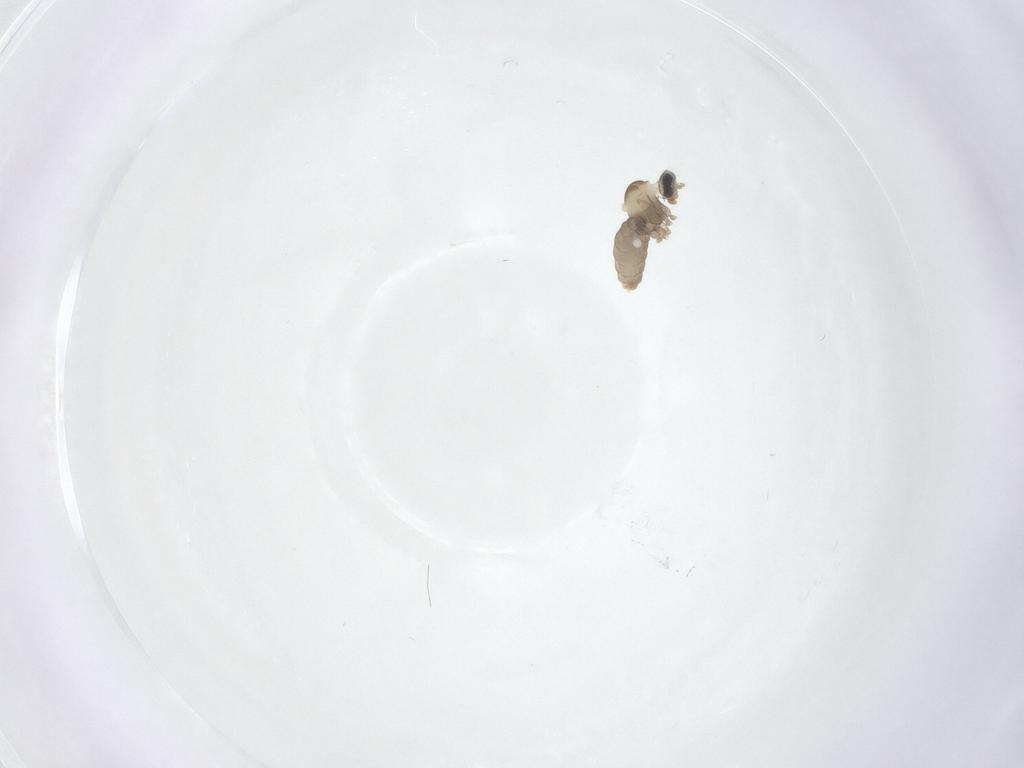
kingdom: Animalia
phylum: Arthropoda
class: Insecta
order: Diptera
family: Cecidomyiidae
